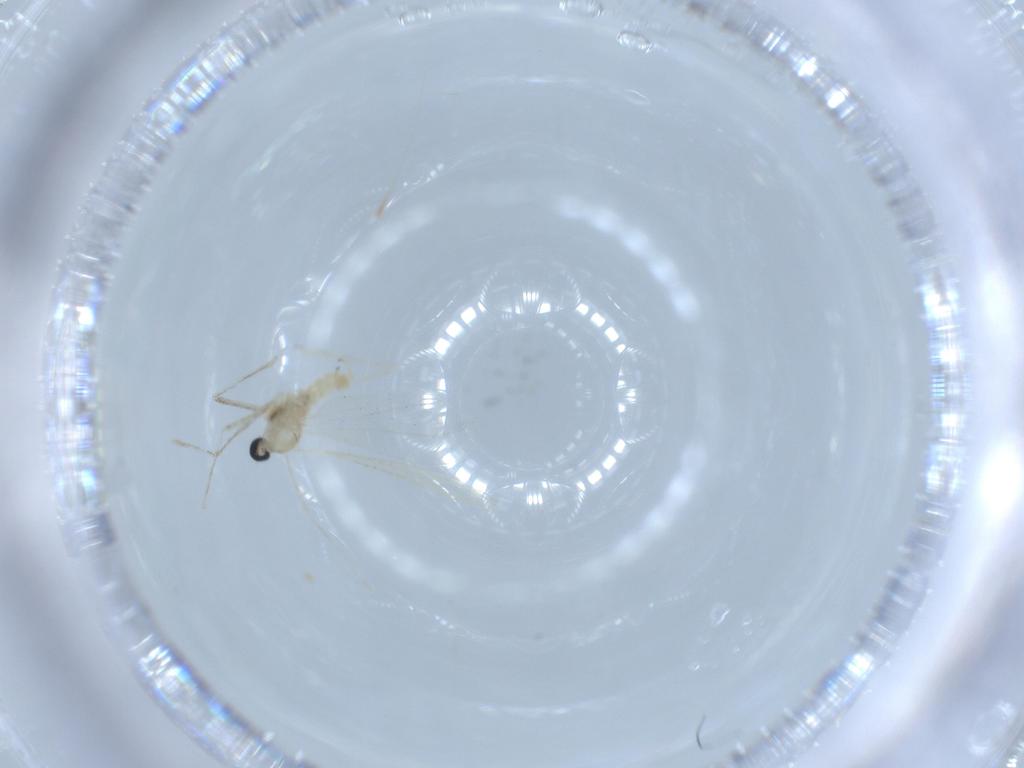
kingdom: Animalia
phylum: Arthropoda
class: Insecta
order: Diptera
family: Cecidomyiidae
